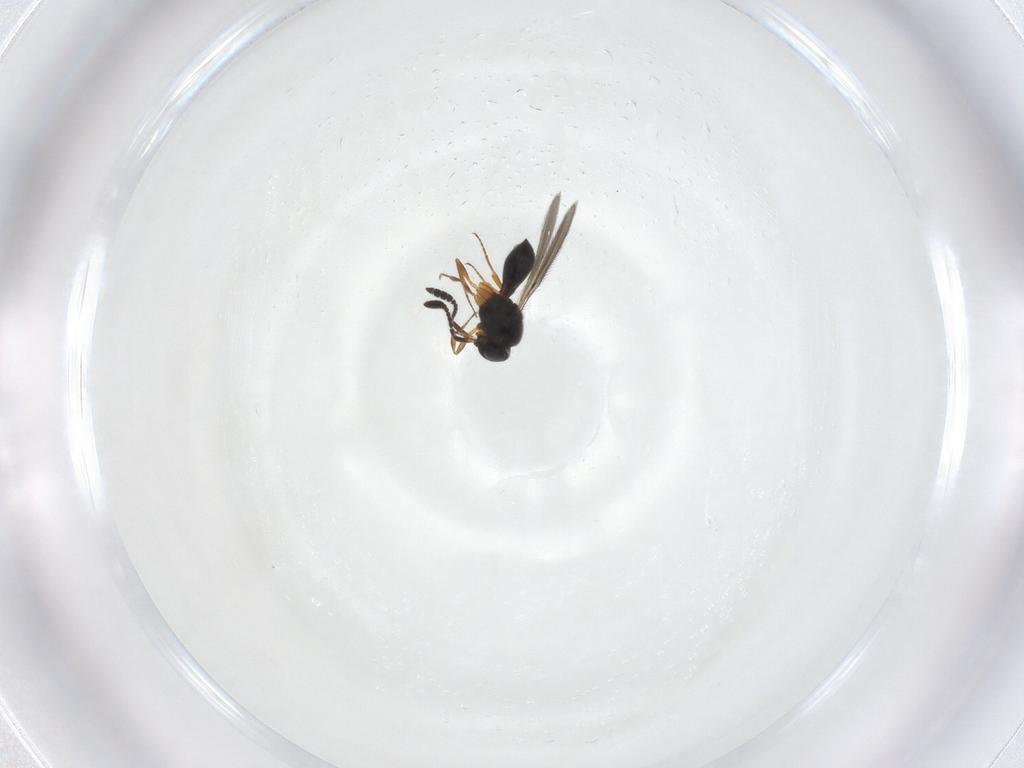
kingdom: Animalia
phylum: Arthropoda
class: Insecta
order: Hymenoptera
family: Scelionidae
